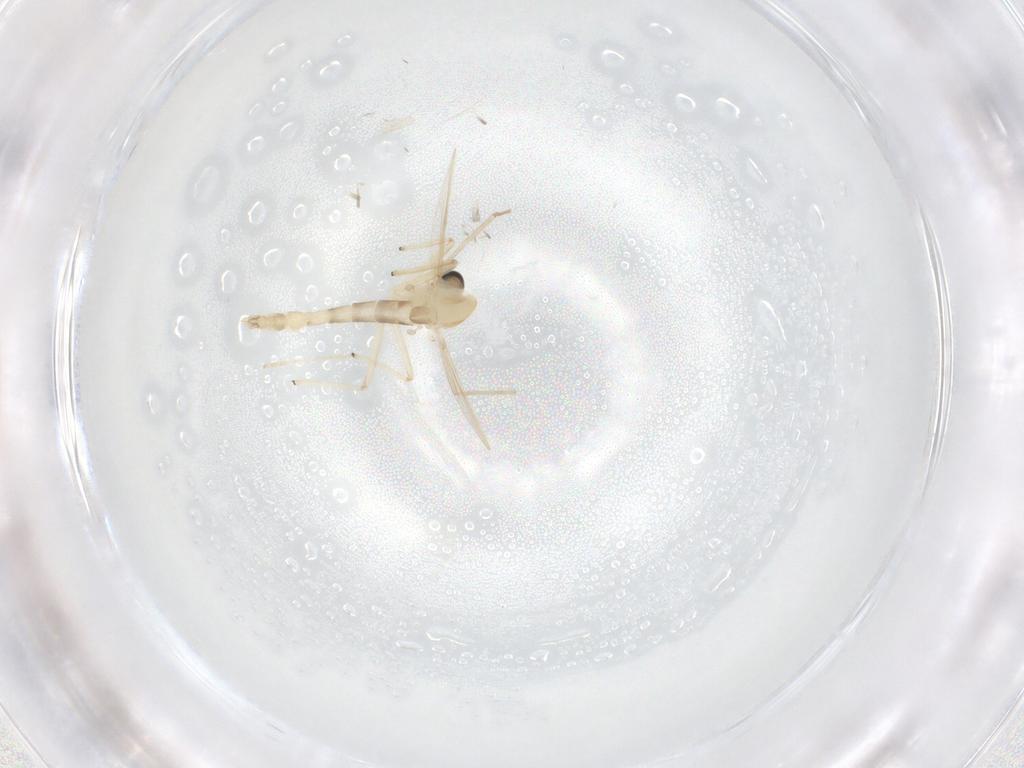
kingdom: Animalia
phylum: Arthropoda
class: Insecta
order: Diptera
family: Chironomidae
